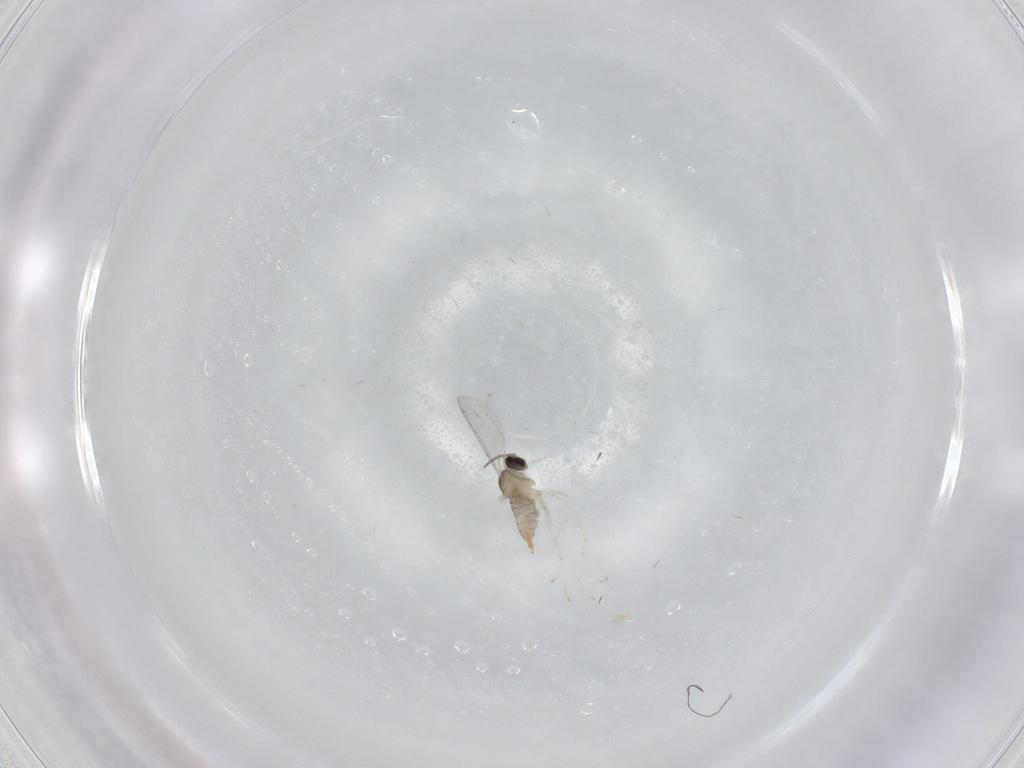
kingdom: Animalia
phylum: Arthropoda
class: Insecta
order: Diptera
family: Cecidomyiidae
